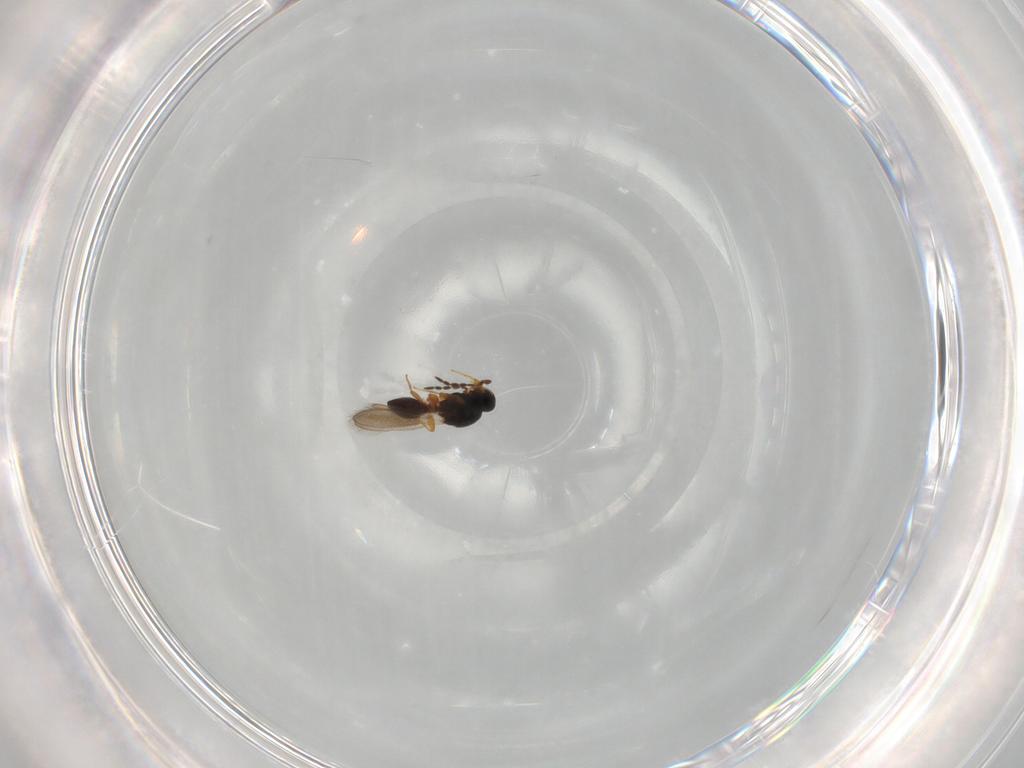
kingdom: Animalia
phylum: Arthropoda
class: Insecta
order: Hymenoptera
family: Platygastridae
